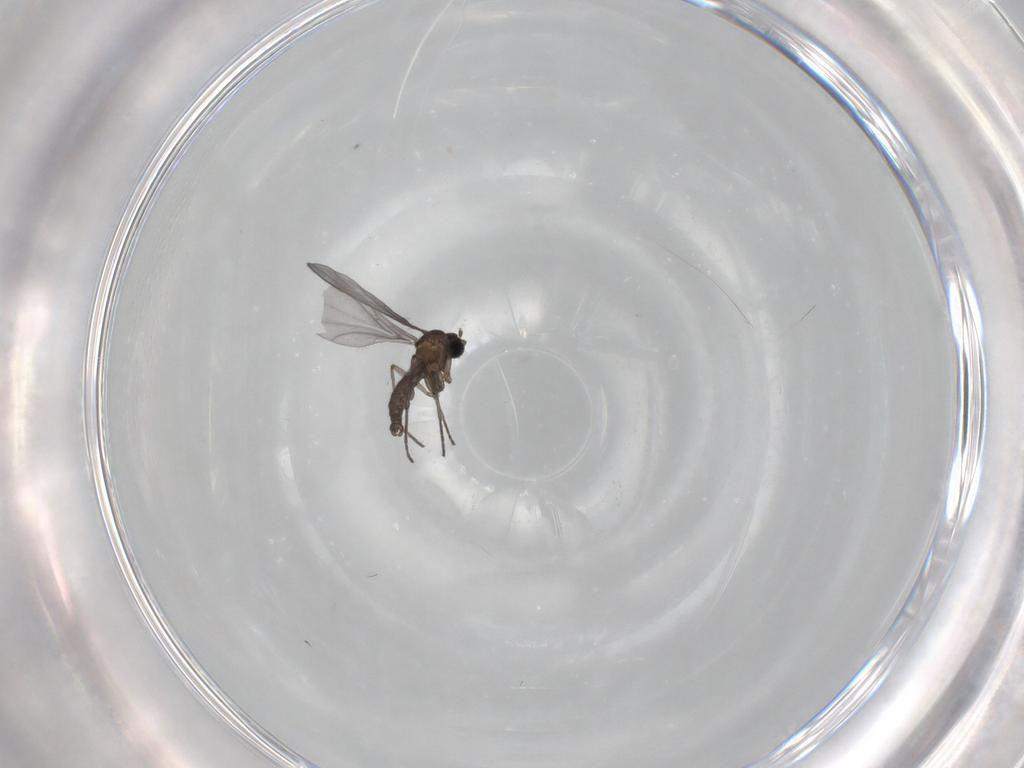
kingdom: Animalia
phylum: Arthropoda
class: Insecta
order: Diptera
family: Sciaridae
